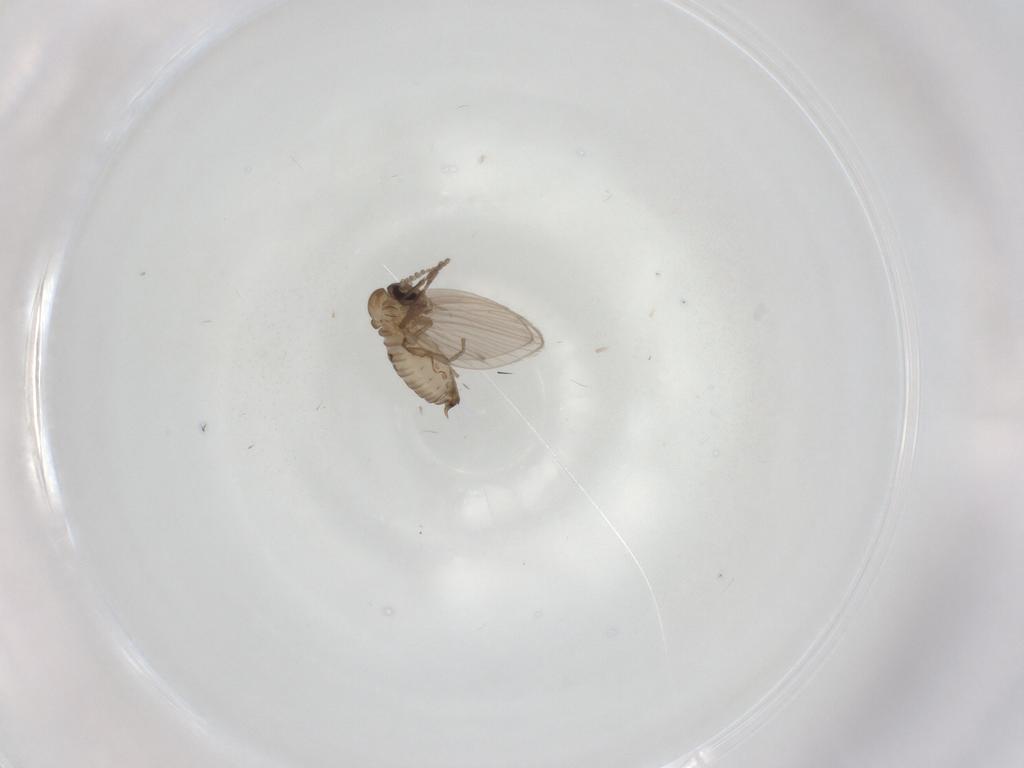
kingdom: Animalia
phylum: Arthropoda
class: Insecta
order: Diptera
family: Psychodidae
